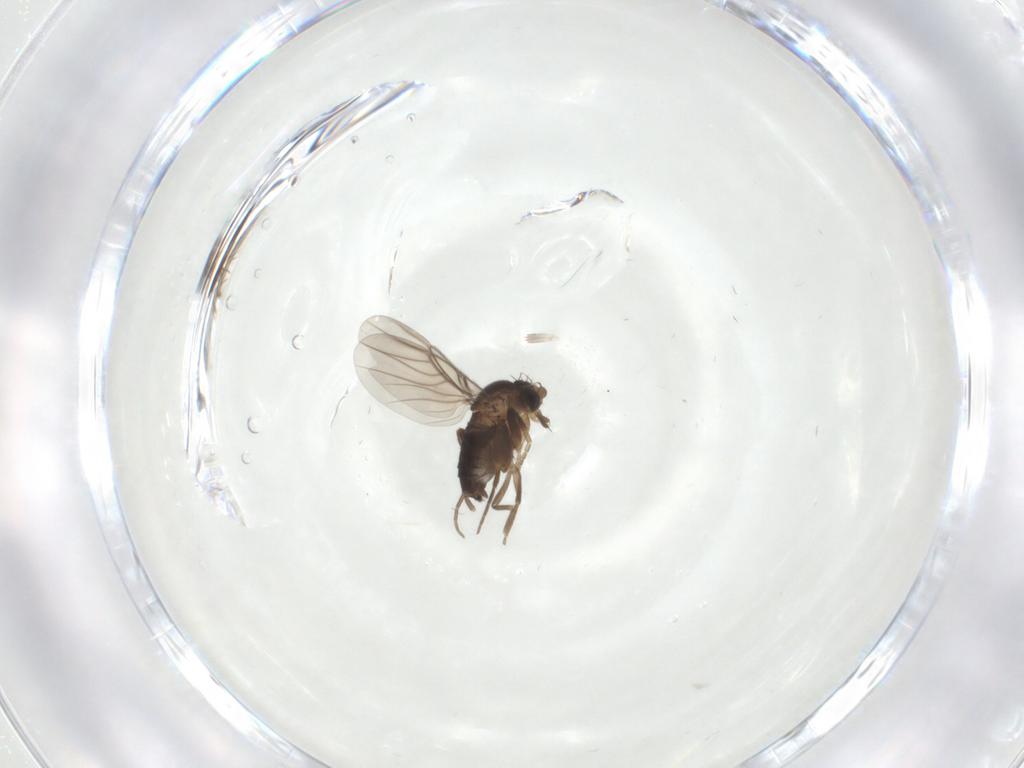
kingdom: Animalia
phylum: Arthropoda
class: Insecta
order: Diptera
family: Phoridae
